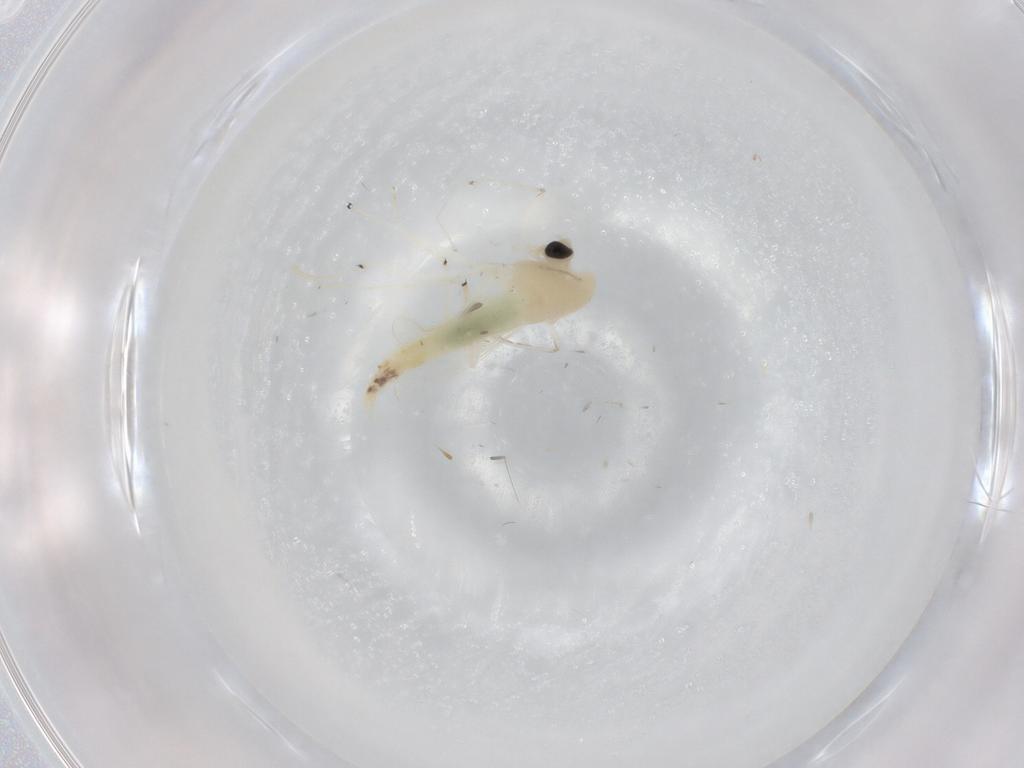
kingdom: Animalia
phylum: Arthropoda
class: Insecta
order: Diptera
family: Chironomidae
